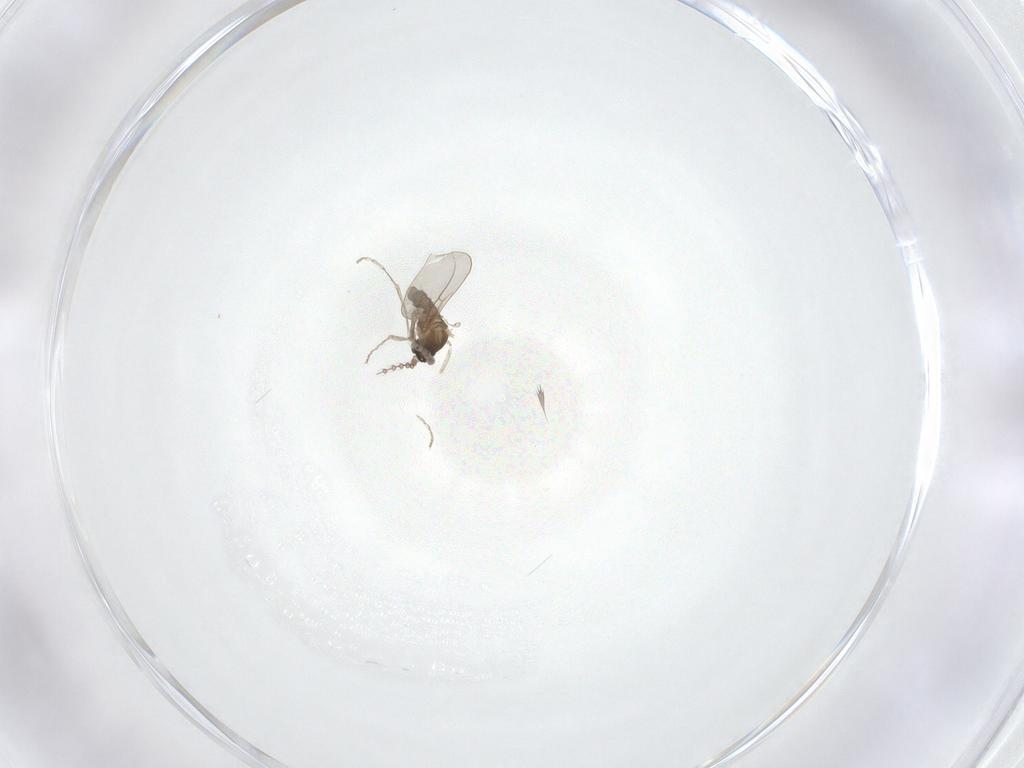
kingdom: Animalia
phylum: Arthropoda
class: Insecta
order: Diptera
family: Cecidomyiidae
